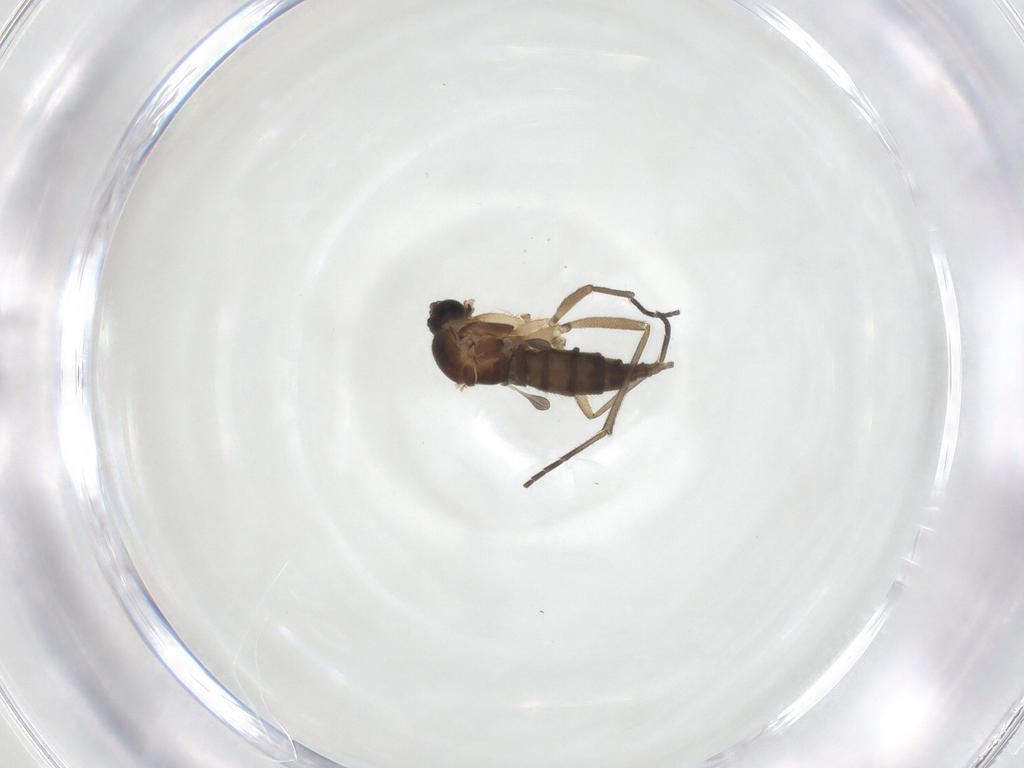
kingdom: Animalia
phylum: Arthropoda
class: Insecta
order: Diptera
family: Sciaridae
